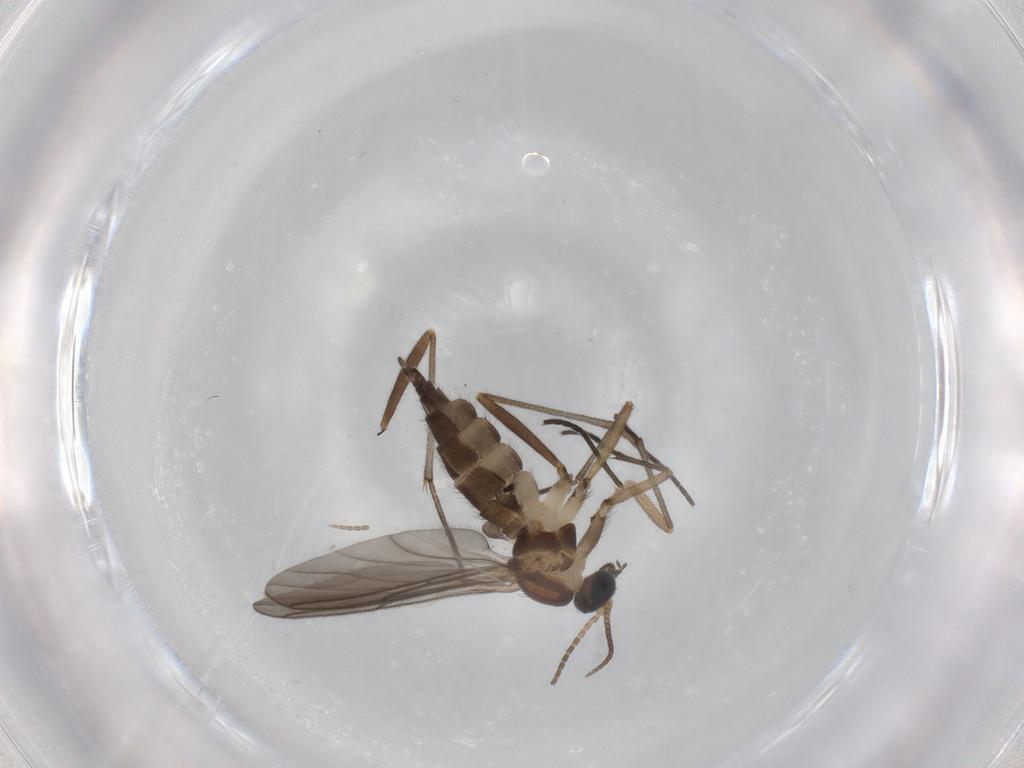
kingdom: Animalia
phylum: Arthropoda
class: Insecta
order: Diptera
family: Sciaridae
